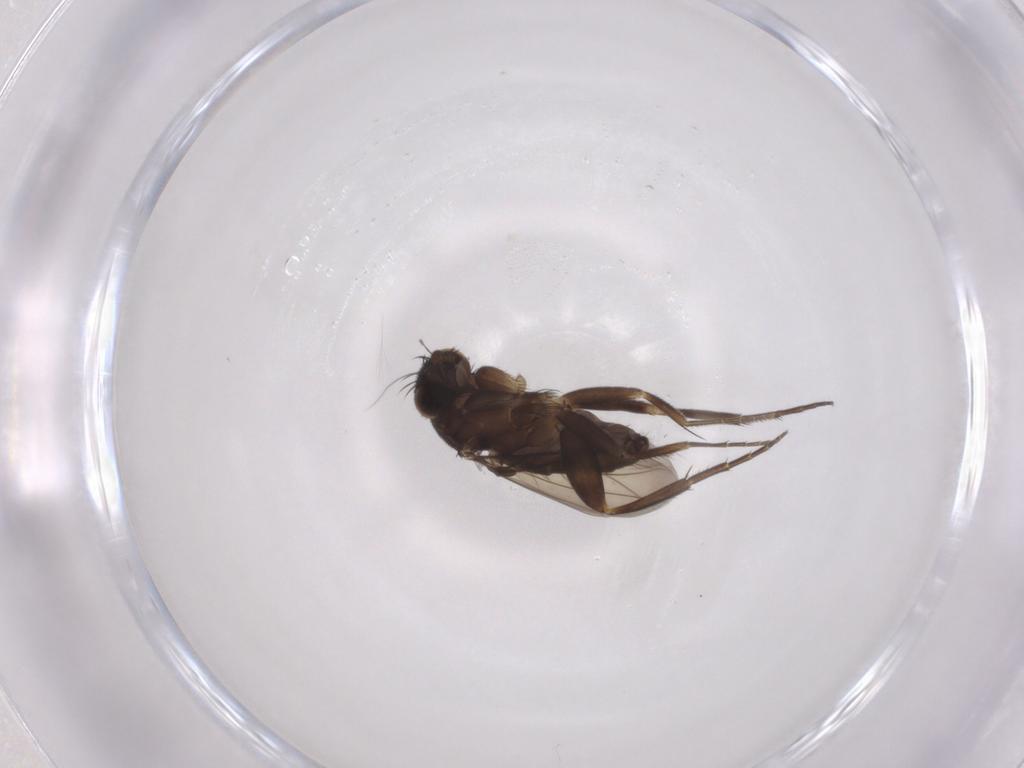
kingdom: Animalia
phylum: Arthropoda
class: Insecta
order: Diptera
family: Phoridae
